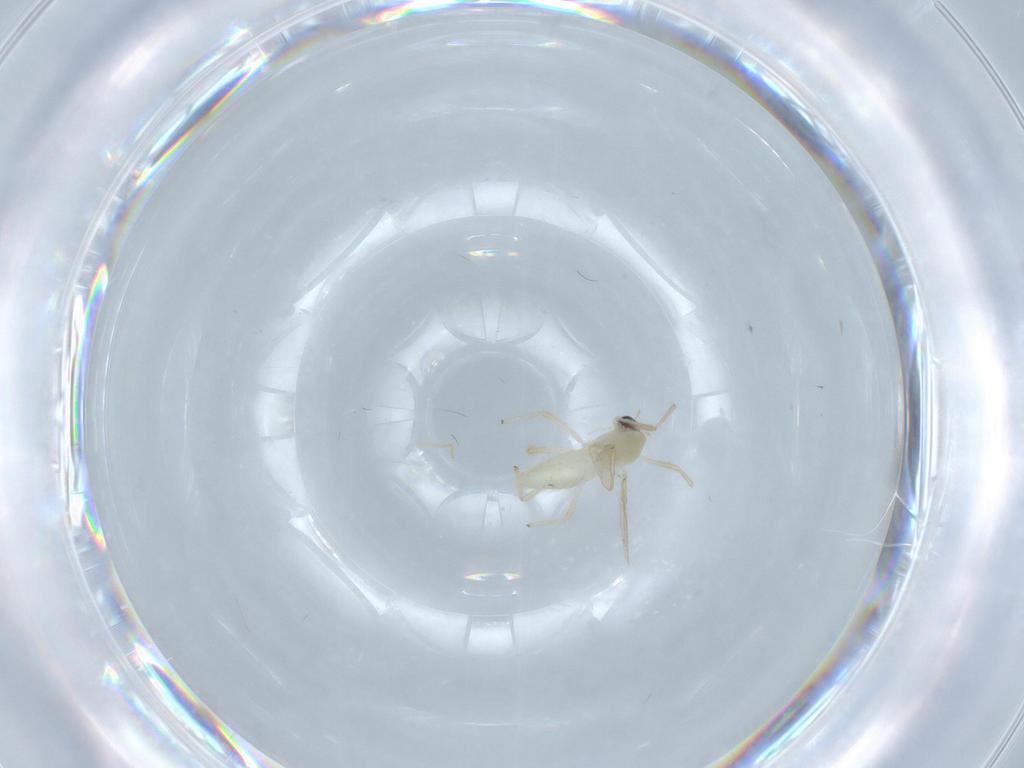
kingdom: Animalia
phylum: Arthropoda
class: Insecta
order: Diptera
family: Chironomidae
